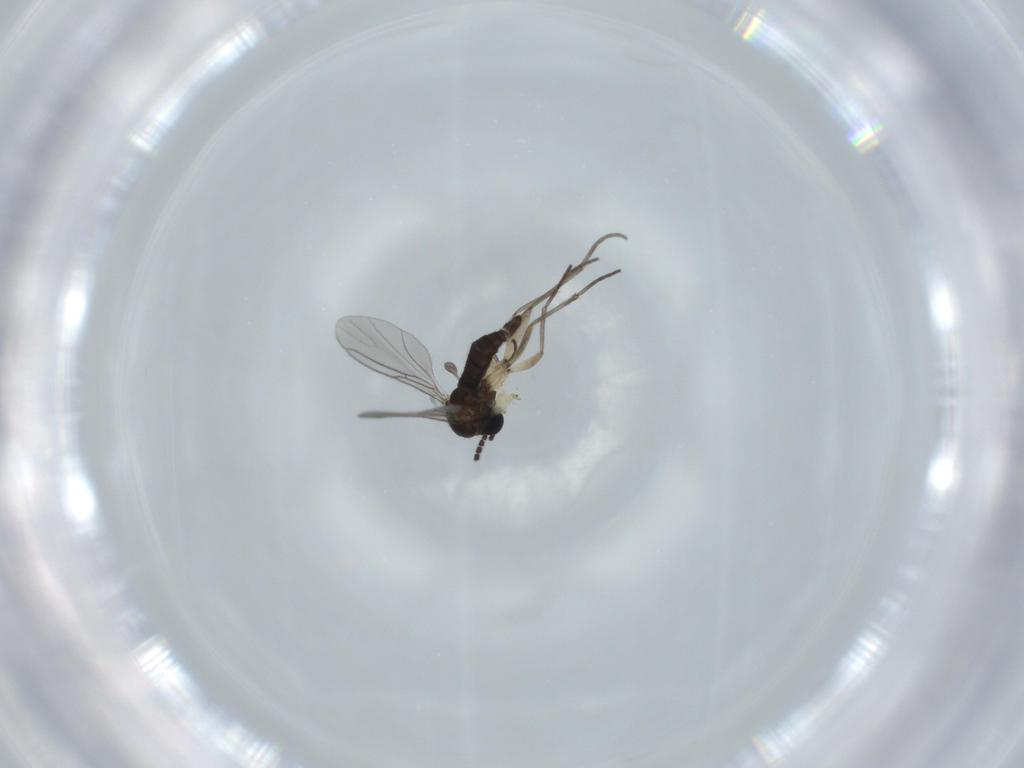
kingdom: Animalia
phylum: Arthropoda
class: Insecta
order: Diptera
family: Sciaridae
